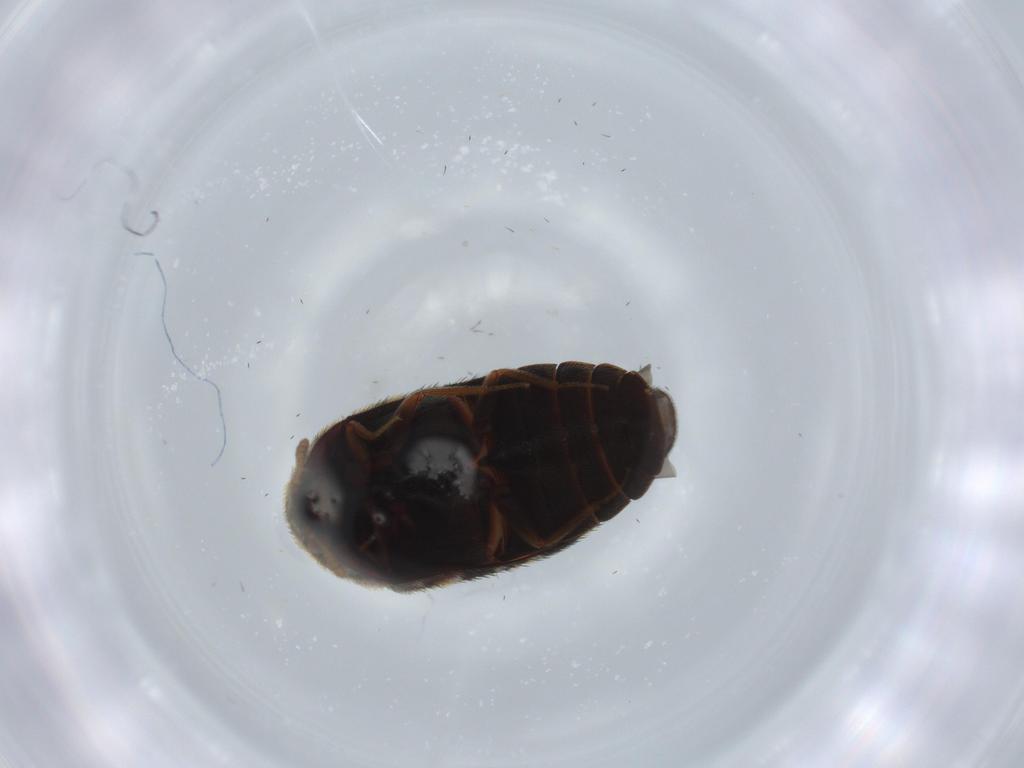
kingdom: Animalia
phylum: Arthropoda
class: Insecta
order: Coleoptera
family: Dermestidae
